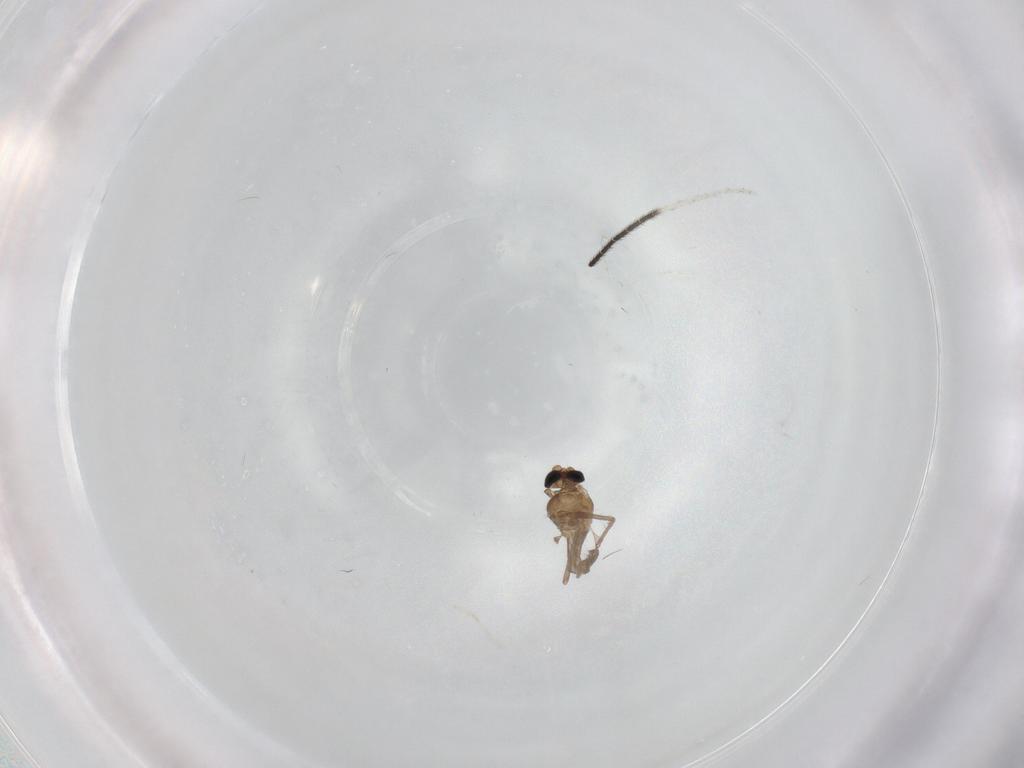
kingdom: Animalia
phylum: Arthropoda
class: Insecta
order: Diptera
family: Chironomidae
